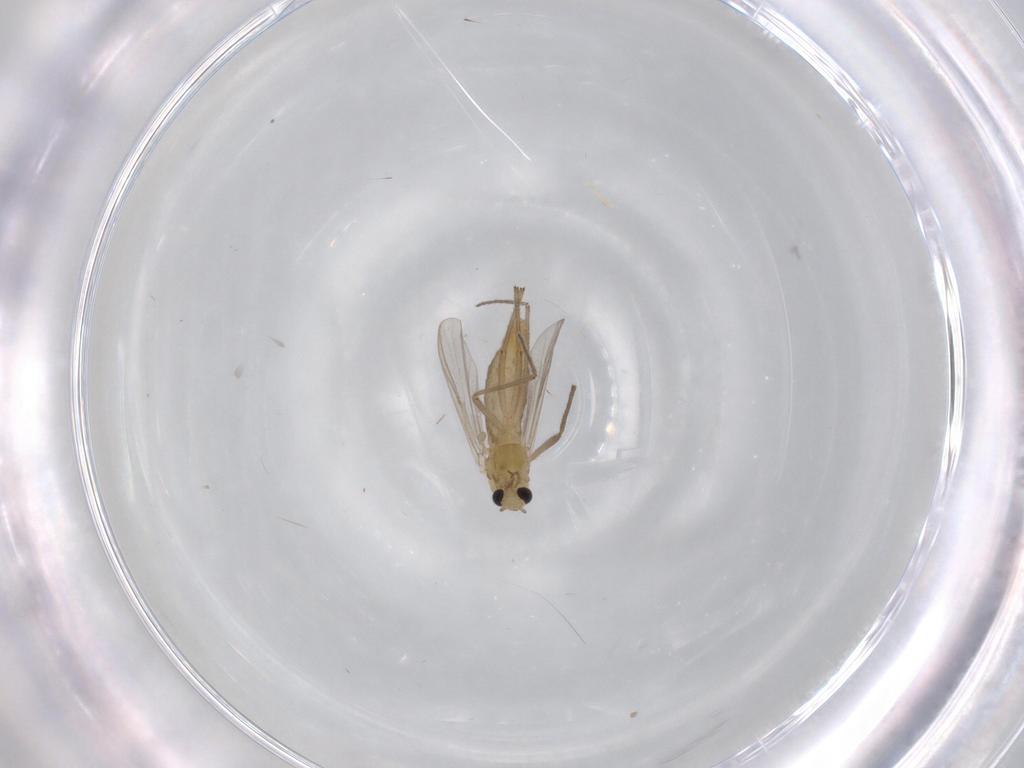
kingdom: Animalia
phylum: Arthropoda
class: Insecta
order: Diptera
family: Chironomidae
